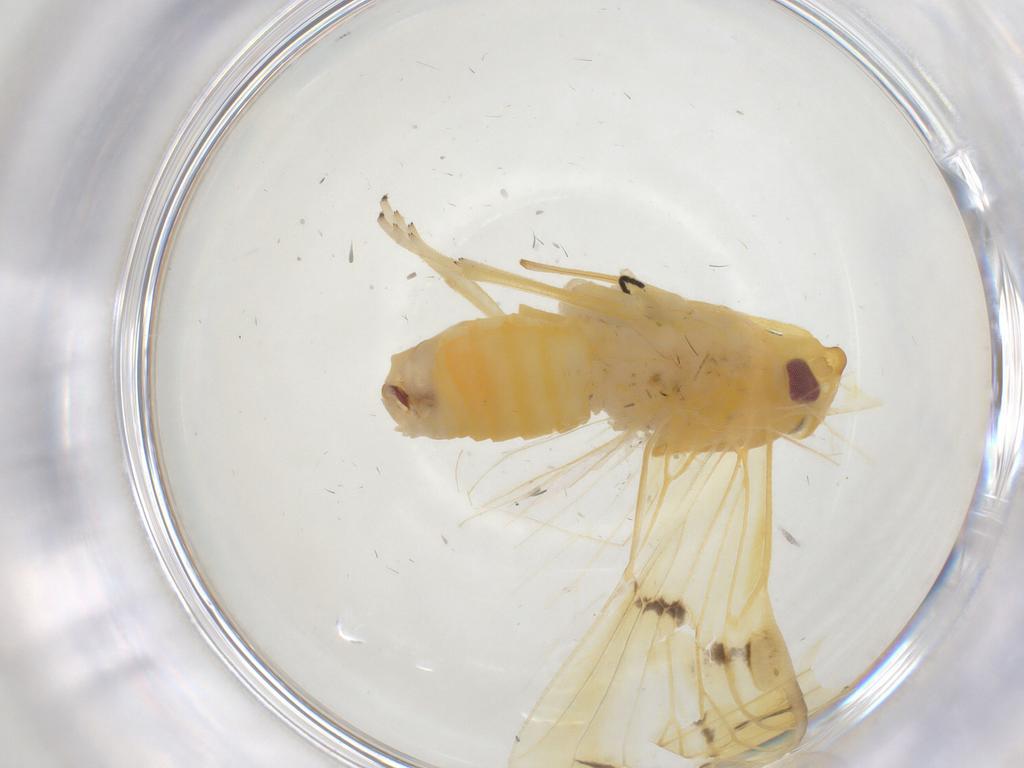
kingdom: Animalia
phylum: Arthropoda
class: Insecta
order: Hemiptera
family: Cixiidae
